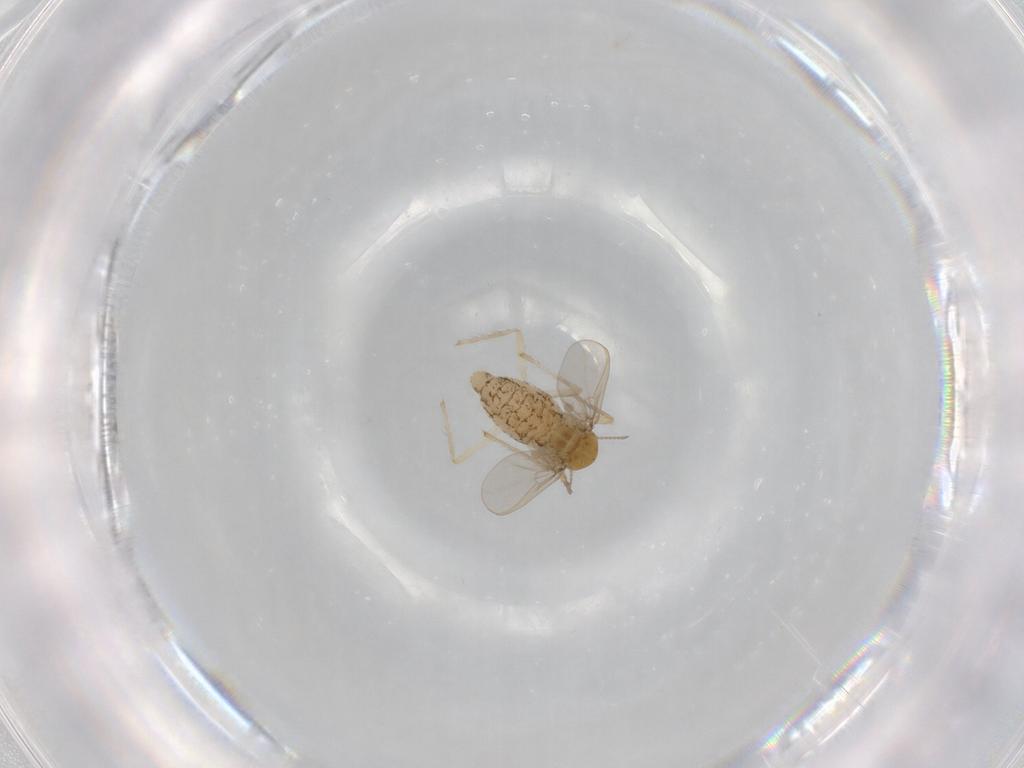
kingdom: Animalia
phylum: Arthropoda
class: Insecta
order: Diptera
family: Chironomidae
